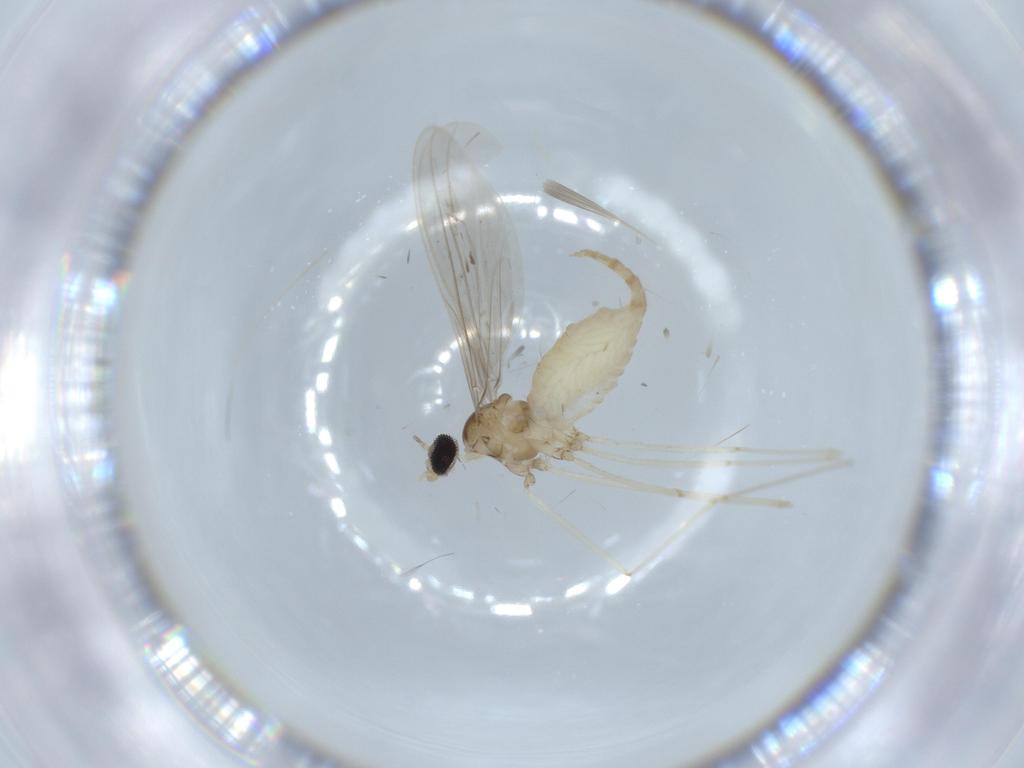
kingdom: Animalia
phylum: Arthropoda
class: Insecta
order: Diptera
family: Cecidomyiidae
